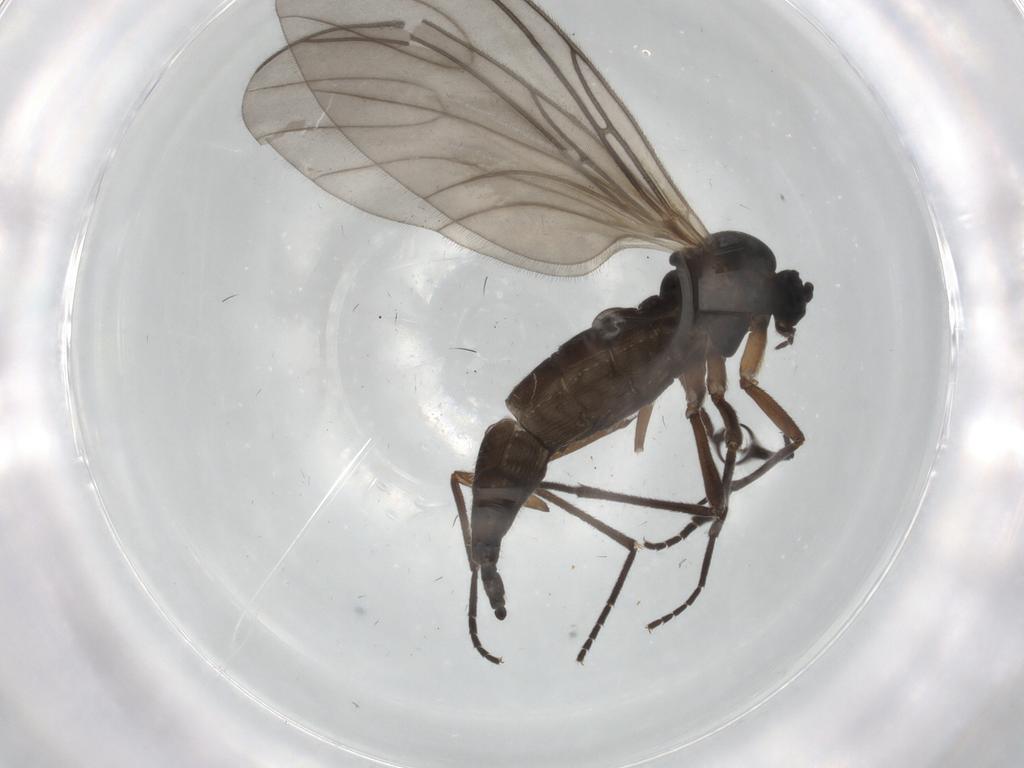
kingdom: Animalia
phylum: Arthropoda
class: Insecta
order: Diptera
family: Sciaridae
